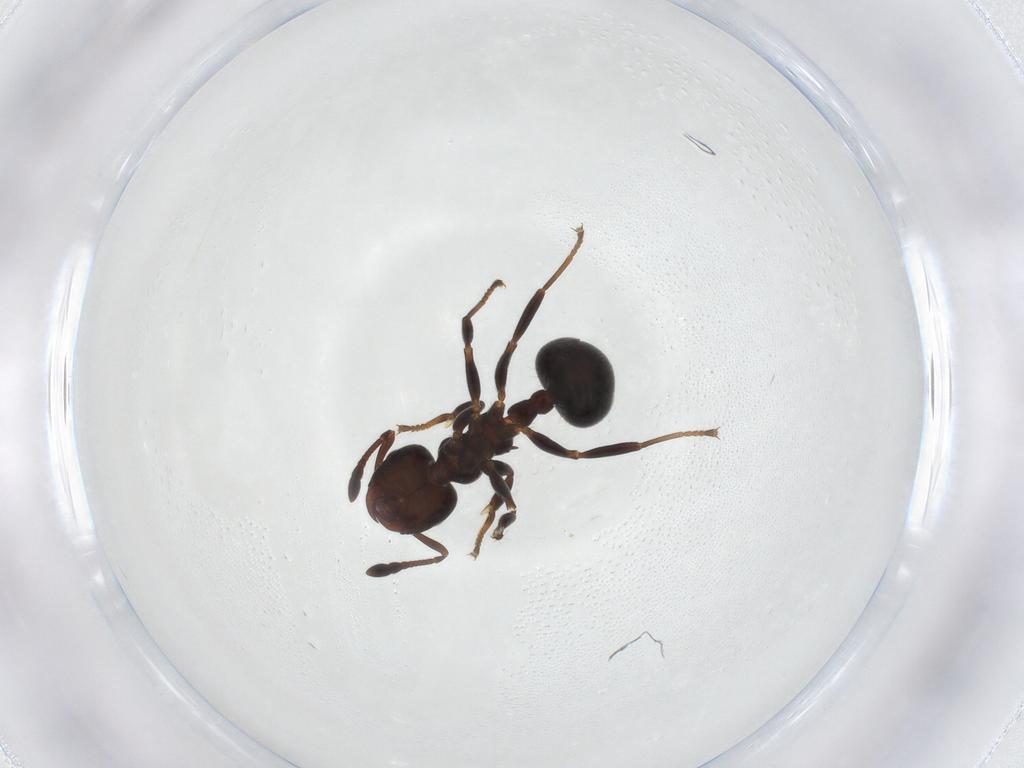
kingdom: Animalia
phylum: Arthropoda
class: Insecta
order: Hymenoptera
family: Formicidae
